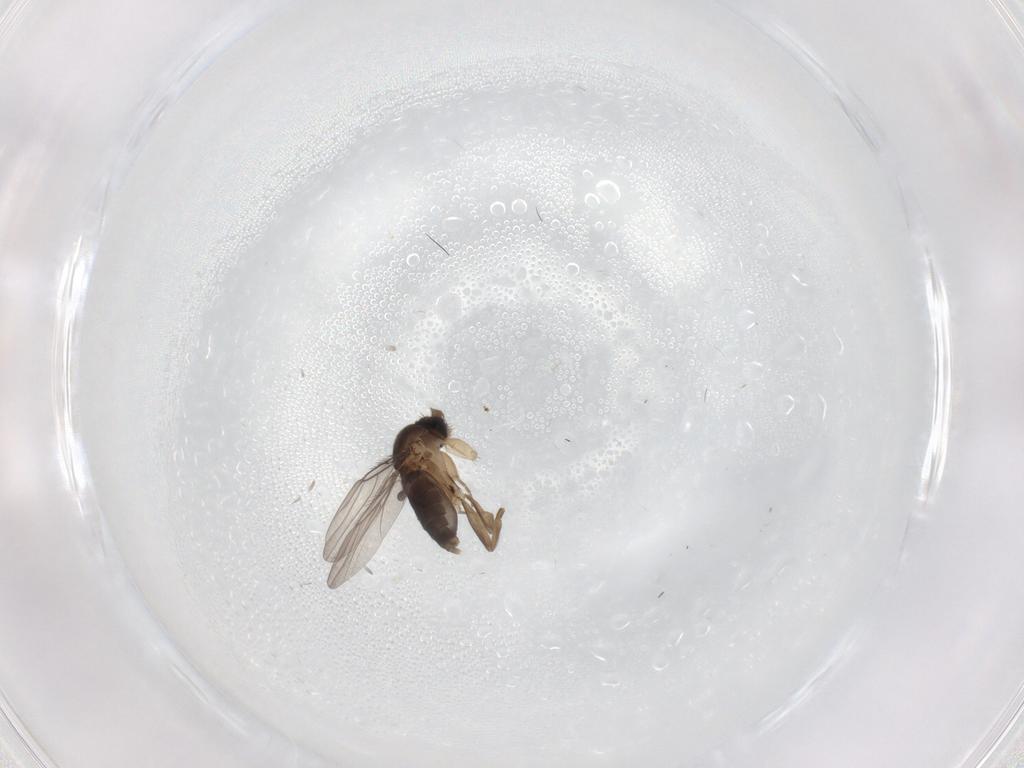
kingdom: Animalia
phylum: Arthropoda
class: Insecta
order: Diptera
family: Phoridae
